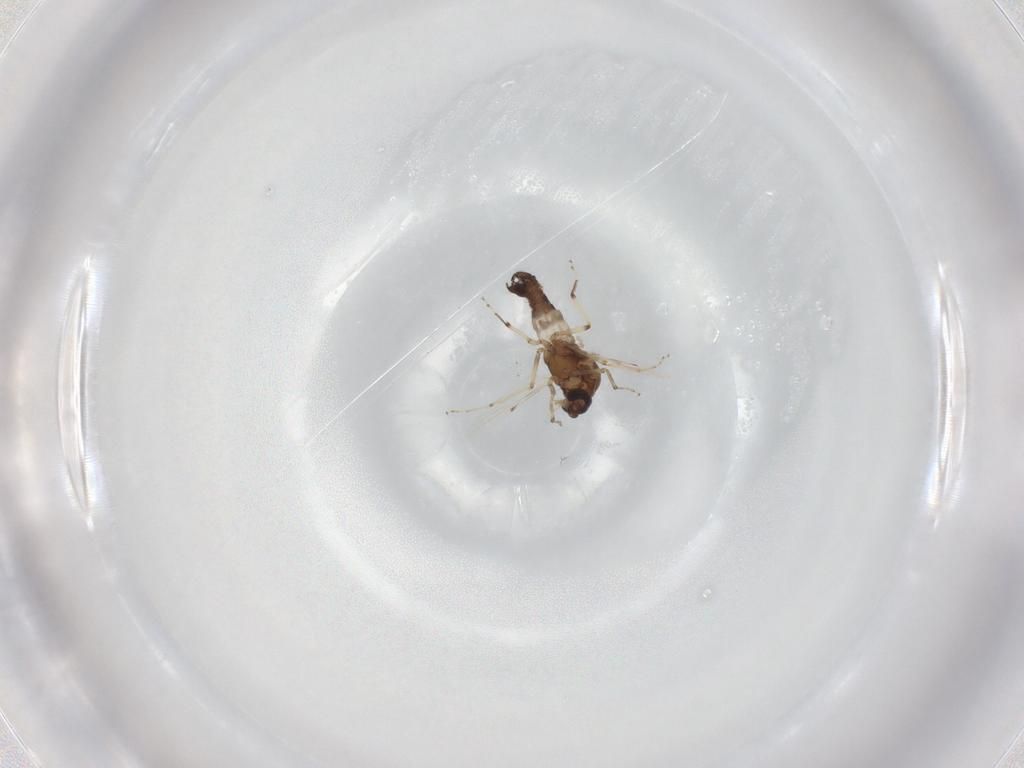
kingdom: Animalia
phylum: Arthropoda
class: Insecta
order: Diptera
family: Ceratopogonidae
